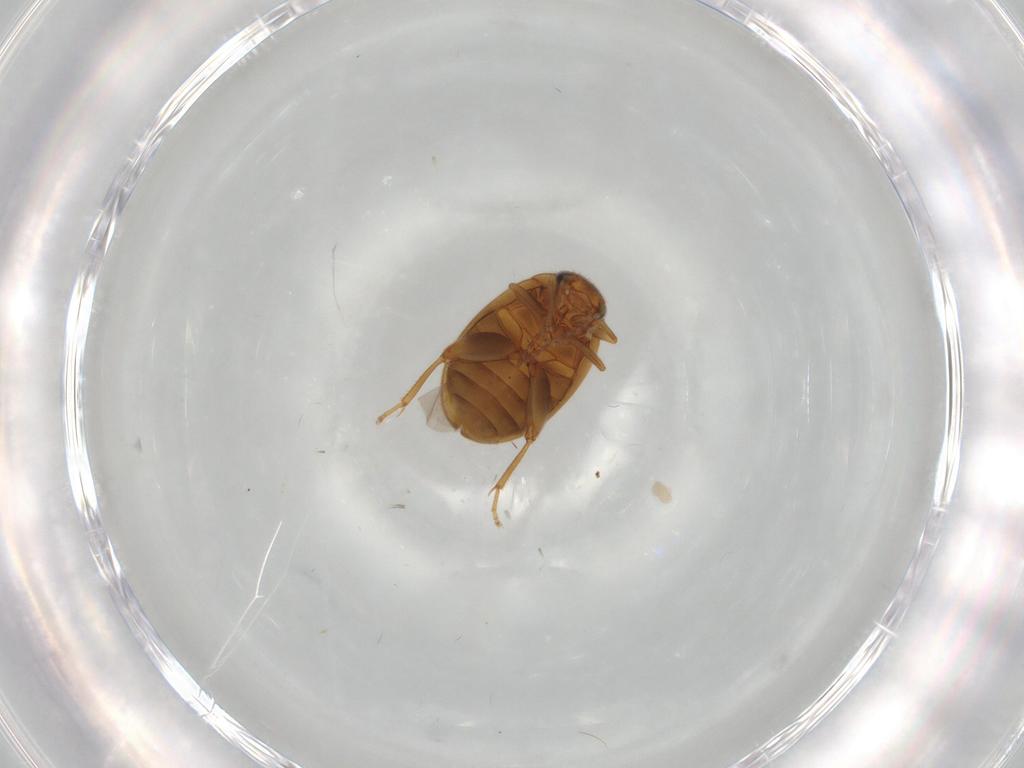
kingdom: Animalia
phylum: Arthropoda
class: Insecta
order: Coleoptera
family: Scirtidae
